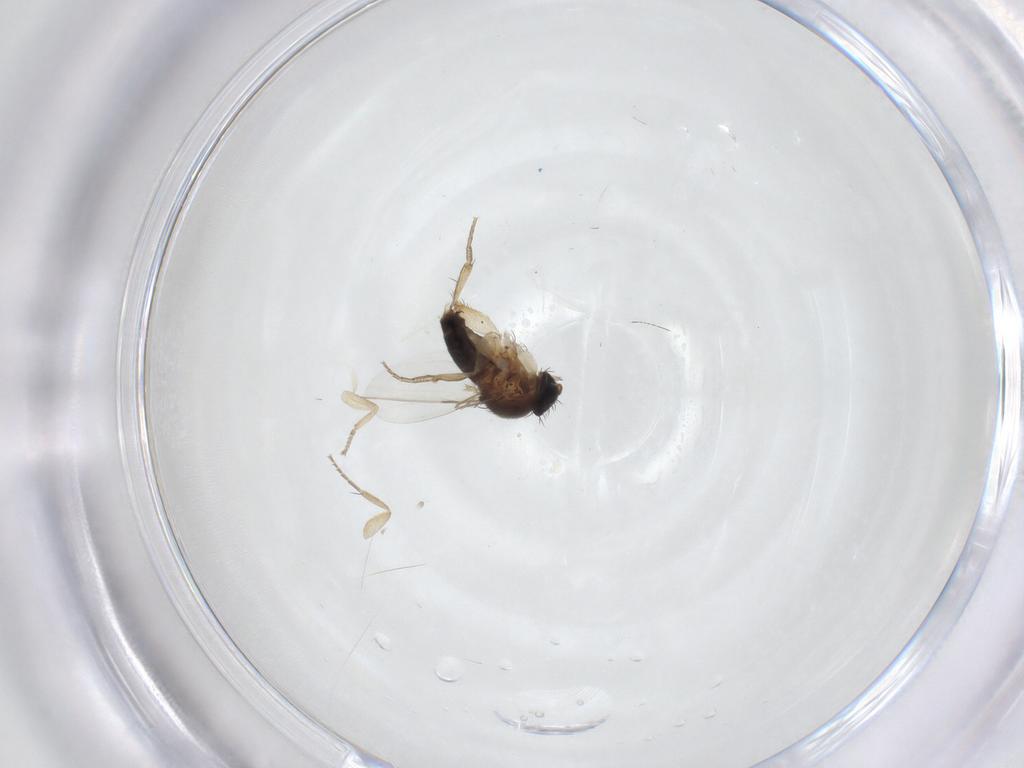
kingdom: Animalia
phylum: Arthropoda
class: Insecta
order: Diptera
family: Phoridae
